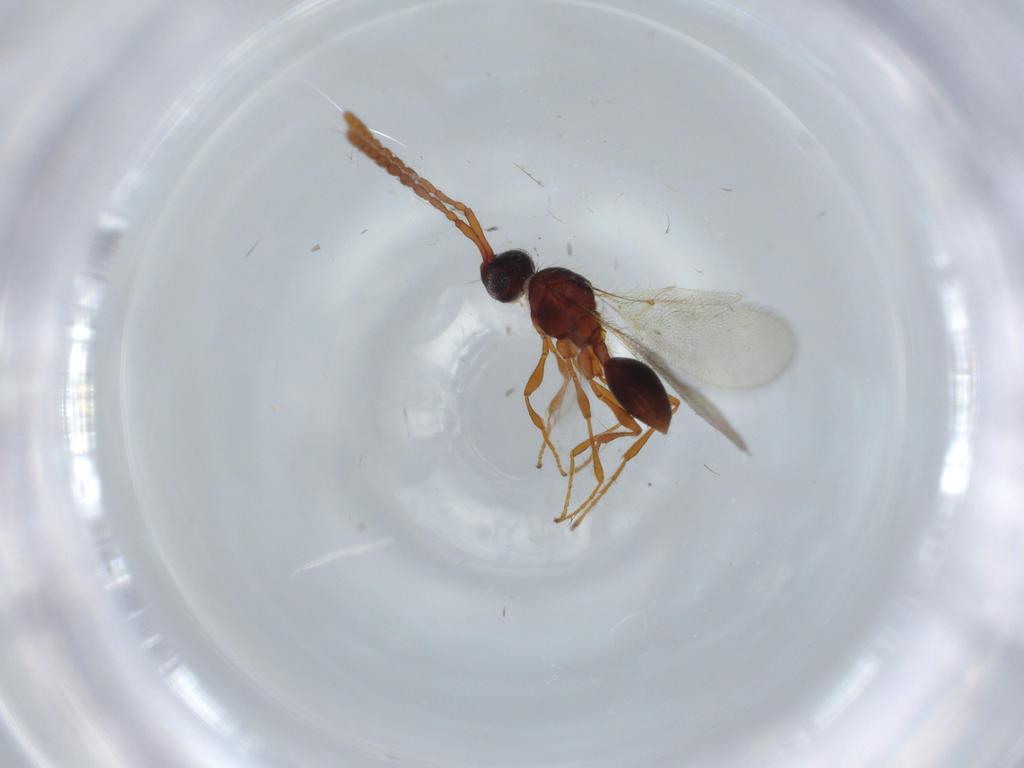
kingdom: Animalia
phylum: Arthropoda
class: Insecta
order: Hymenoptera
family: Diapriidae
